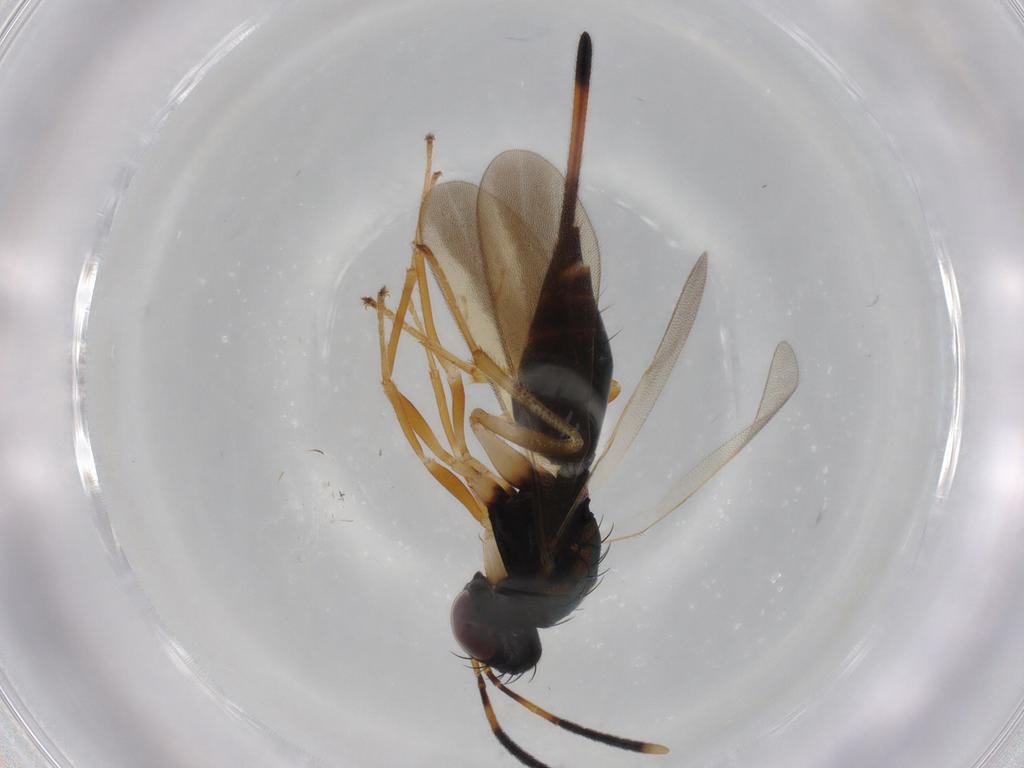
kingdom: Animalia
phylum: Arthropoda
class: Insecta
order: Hymenoptera
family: Diparidae
